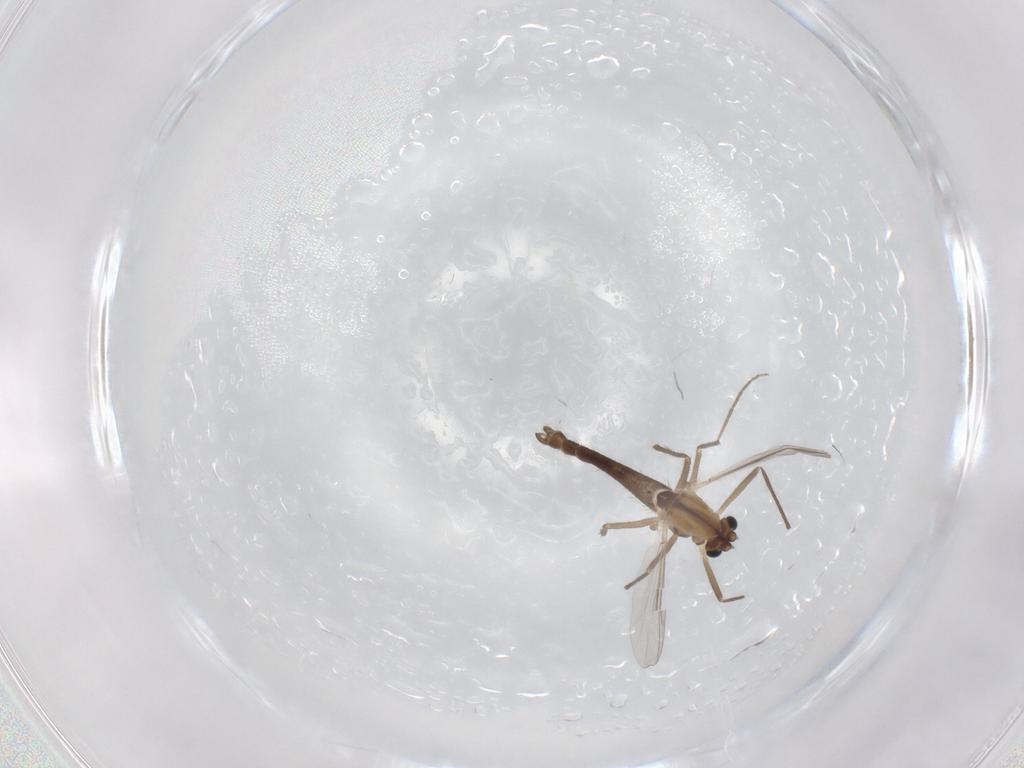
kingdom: Animalia
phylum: Arthropoda
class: Insecta
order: Diptera
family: Chironomidae
